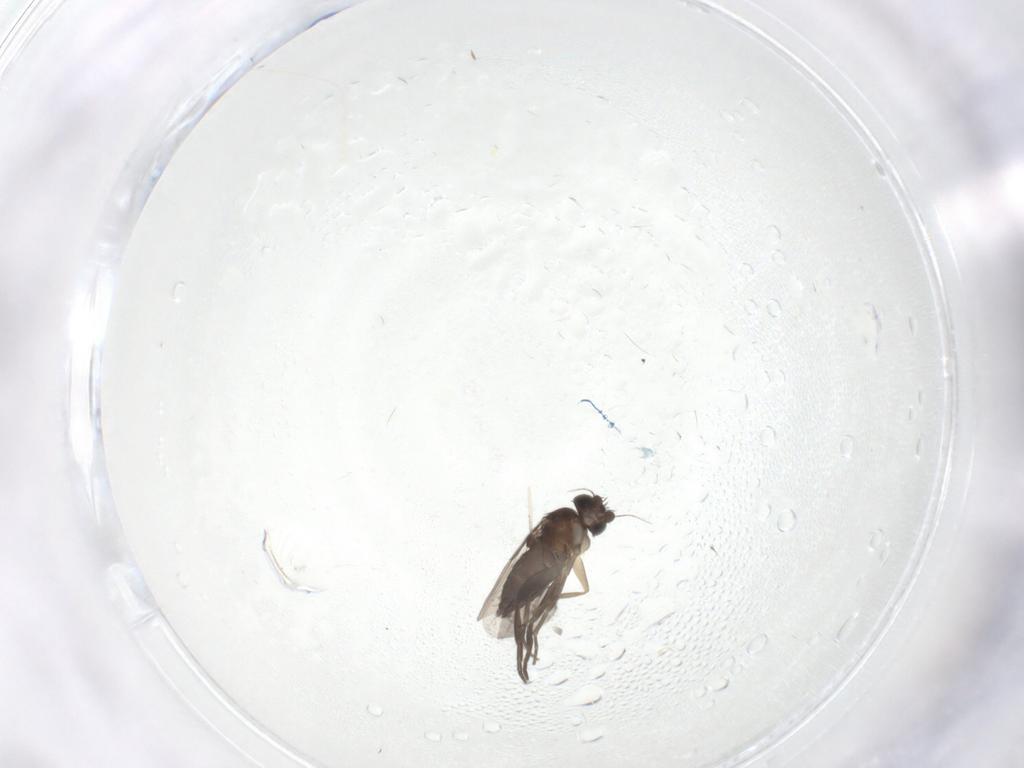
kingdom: Animalia
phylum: Arthropoda
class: Insecta
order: Diptera
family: Cecidomyiidae
